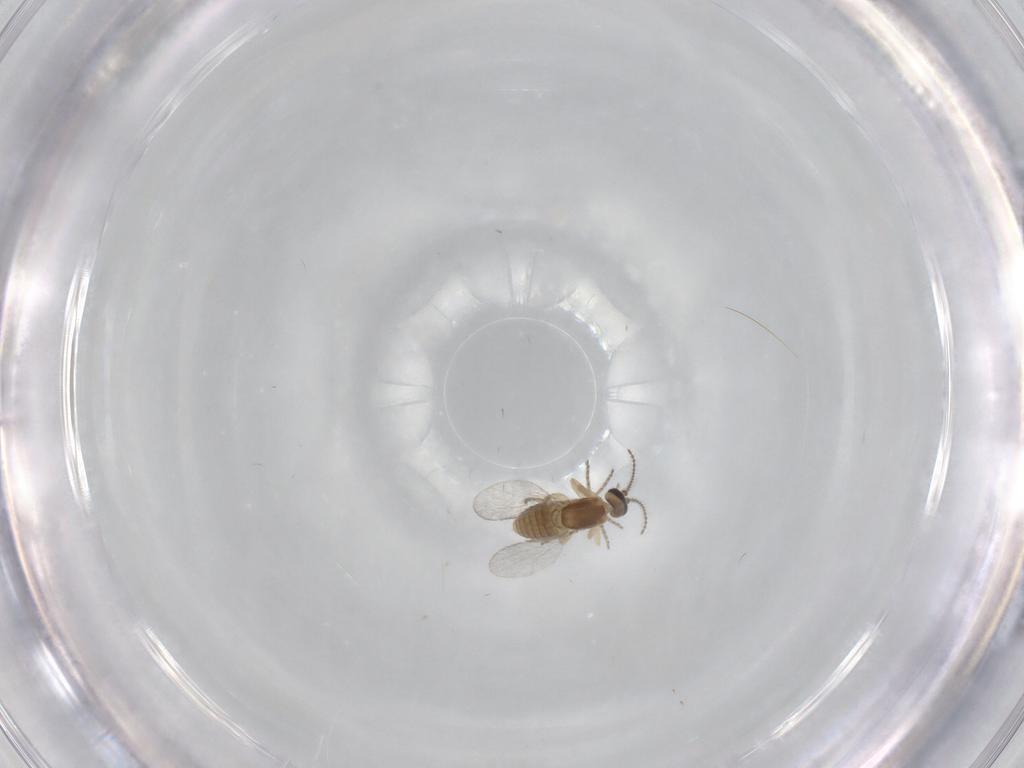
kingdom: Animalia
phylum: Arthropoda
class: Insecta
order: Diptera
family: Ceratopogonidae
